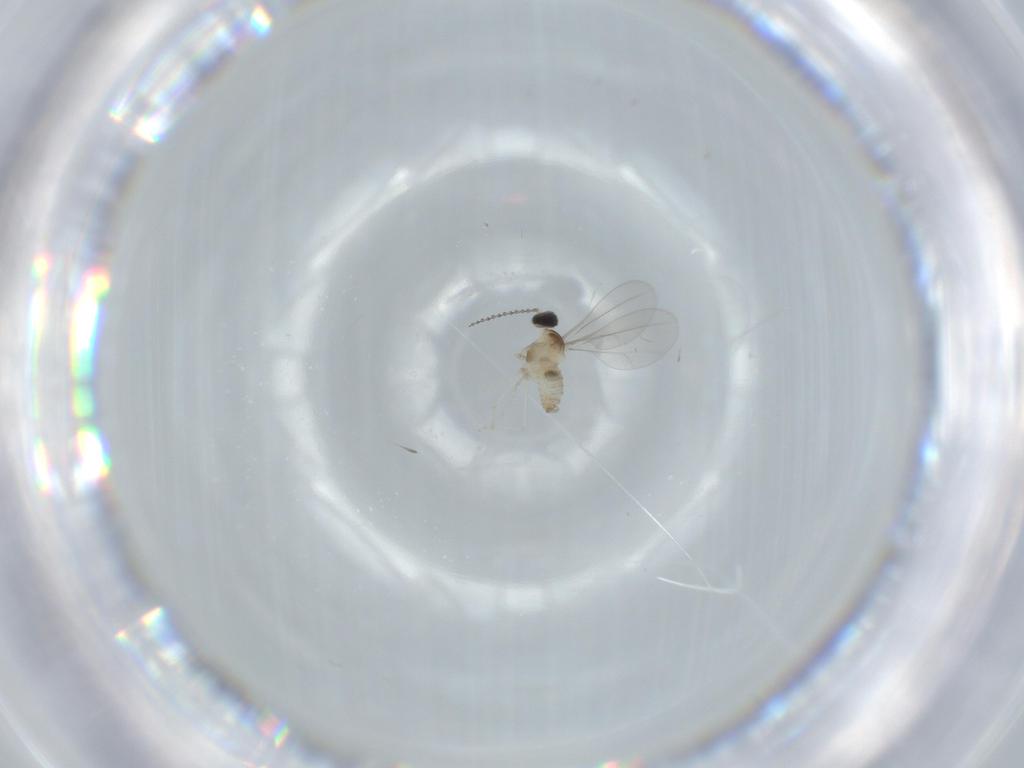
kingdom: Animalia
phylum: Arthropoda
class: Insecta
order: Diptera
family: Cecidomyiidae
